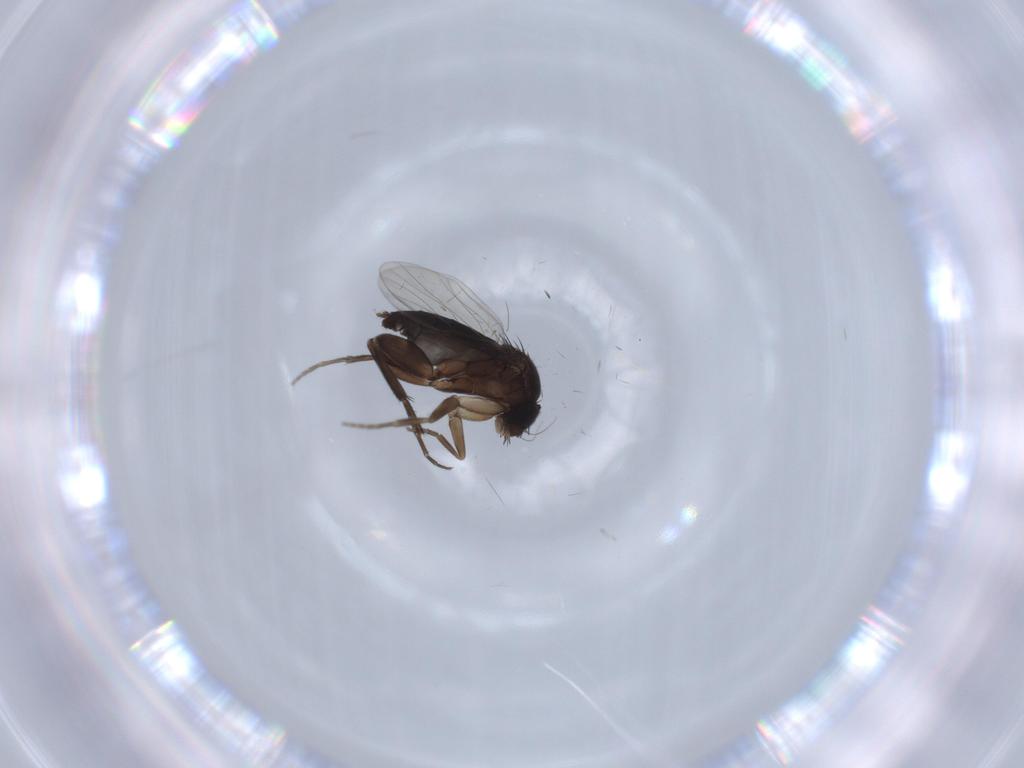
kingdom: Animalia
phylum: Arthropoda
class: Insecta
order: Diptera
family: Phoridae
